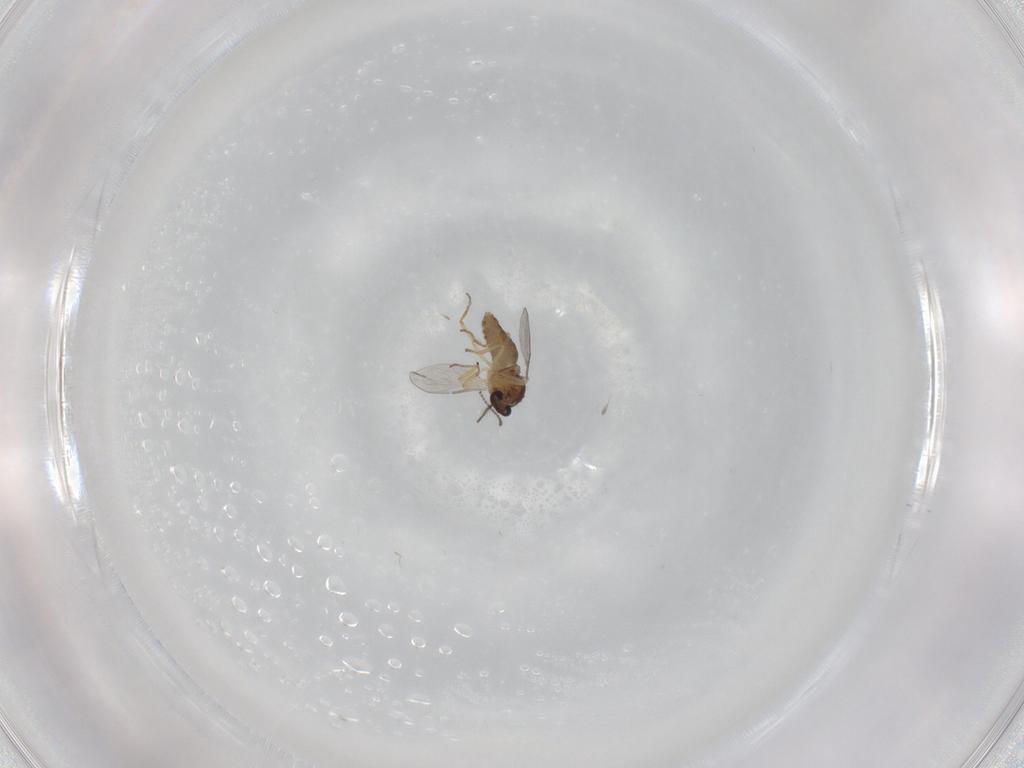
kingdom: Animalia
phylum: Arthropoda
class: Insecta
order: Diptera
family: Ceratopogonidae
